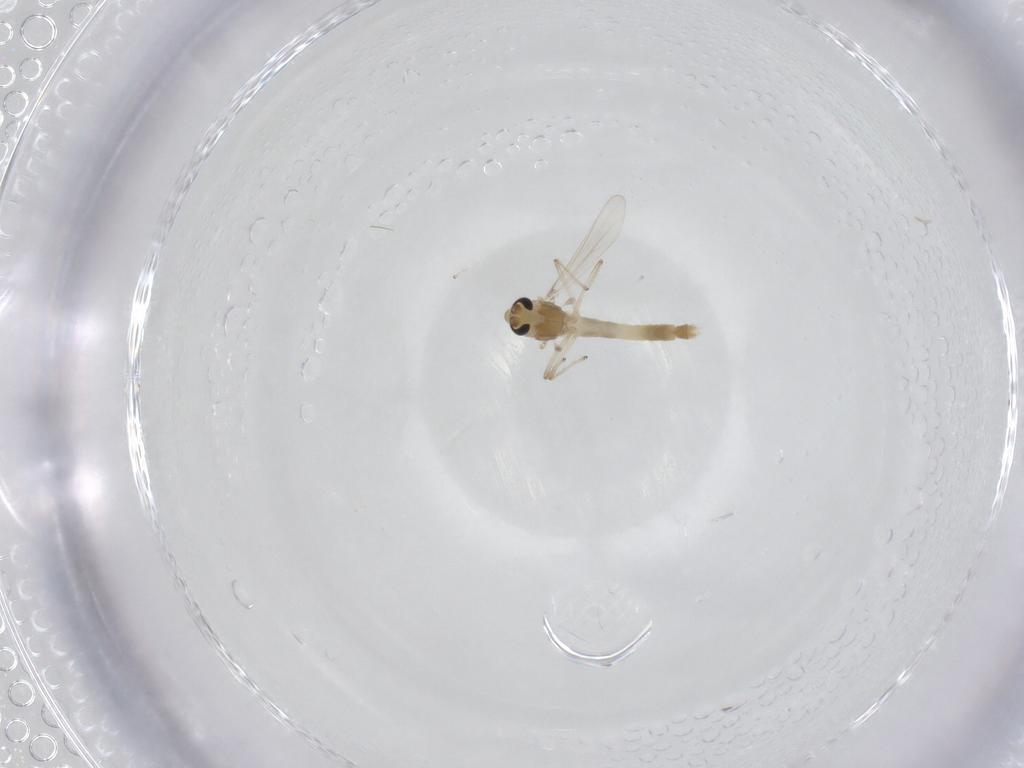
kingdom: Animalia
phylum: Arthropoda
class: Insecta
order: Diptera
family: Chironomidae
